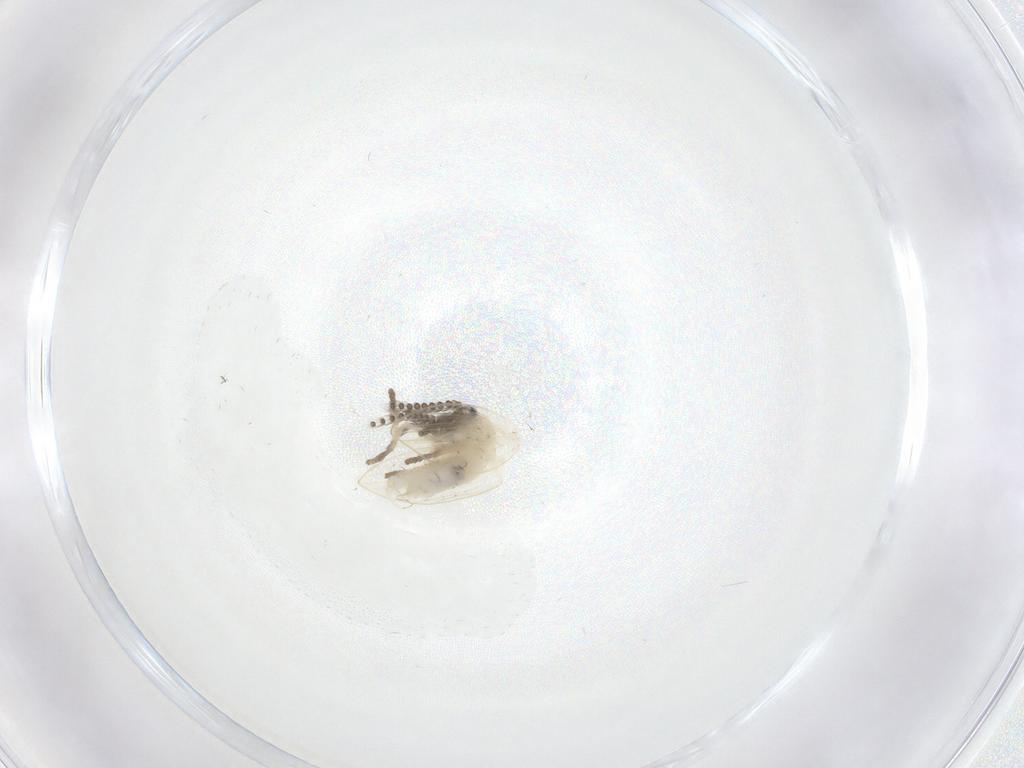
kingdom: Animalia
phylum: Arthropoda
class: Insecta
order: Diptera
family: Psychodidae
